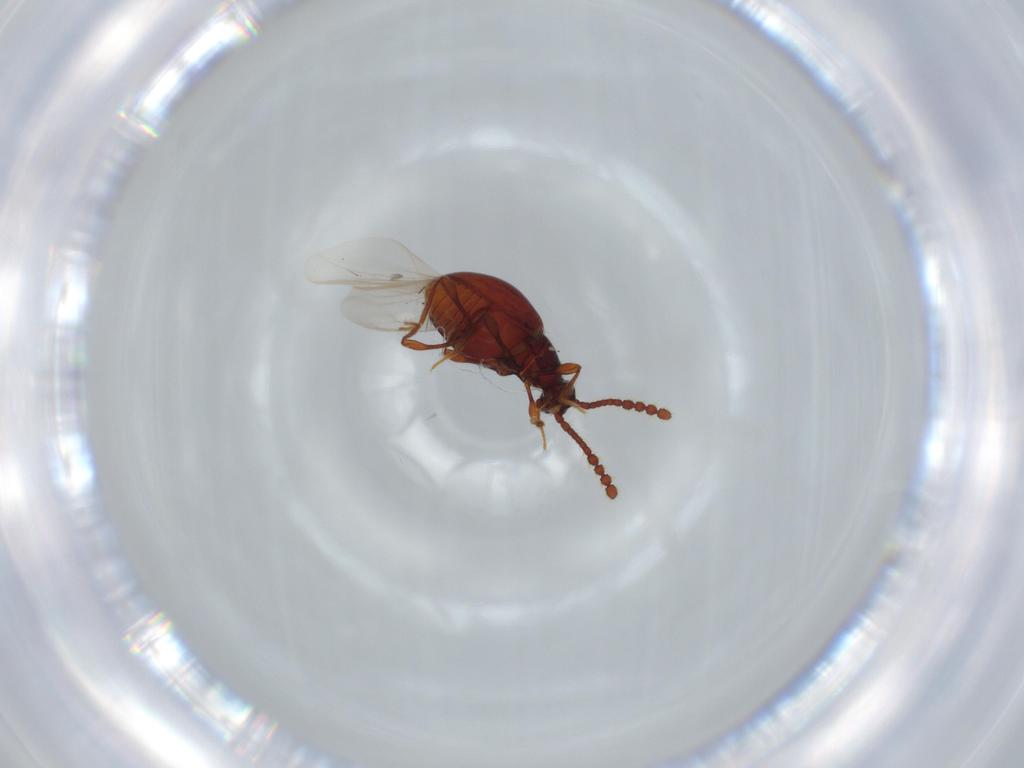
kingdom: Animalia
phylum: Arthropoda
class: Insecta
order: Coleoptera
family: Staphylinidae
